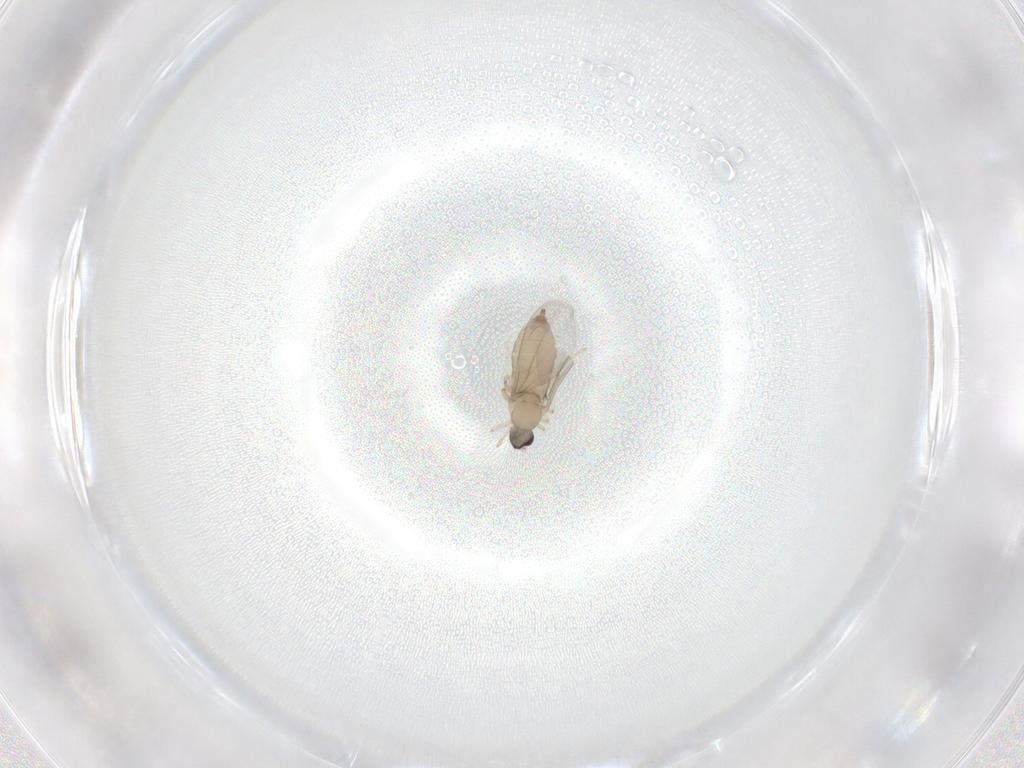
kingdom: Animalia
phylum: Arthropoda
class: Insecta
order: Diptera
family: Cecidomyiidae
